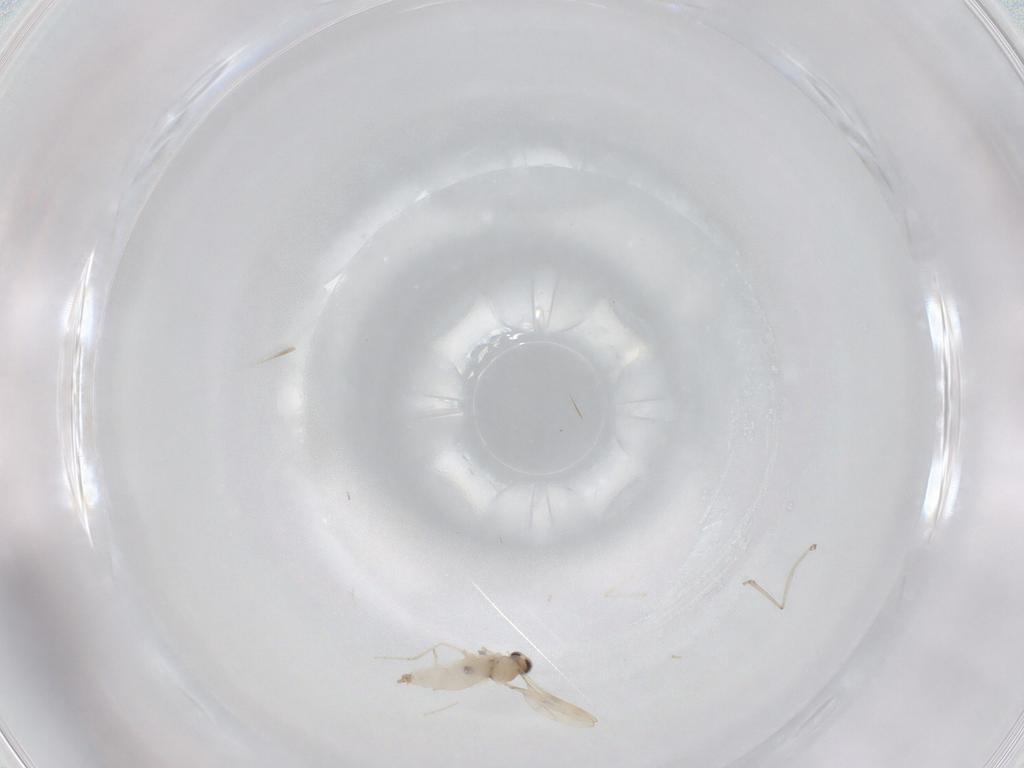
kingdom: Animalia
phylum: Arthropoda
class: Insecta
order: Diptera
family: Cecidomyiidae
